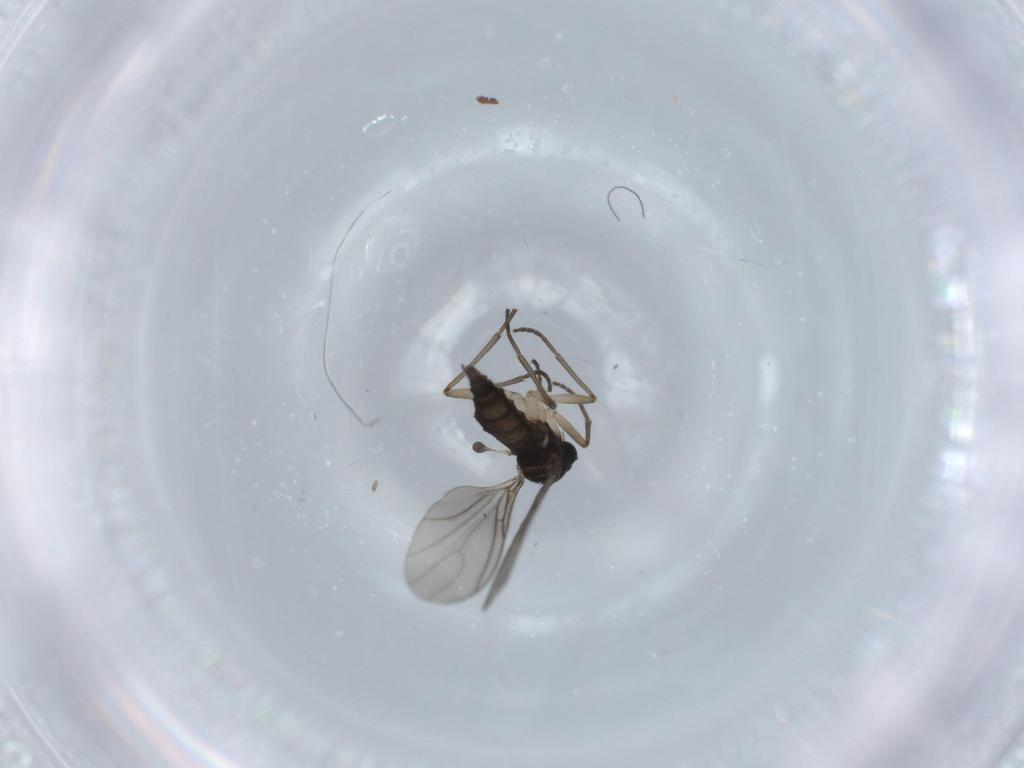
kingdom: Animalia
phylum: Arthropoda
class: Insecta
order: Diptera
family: Sciaridae
